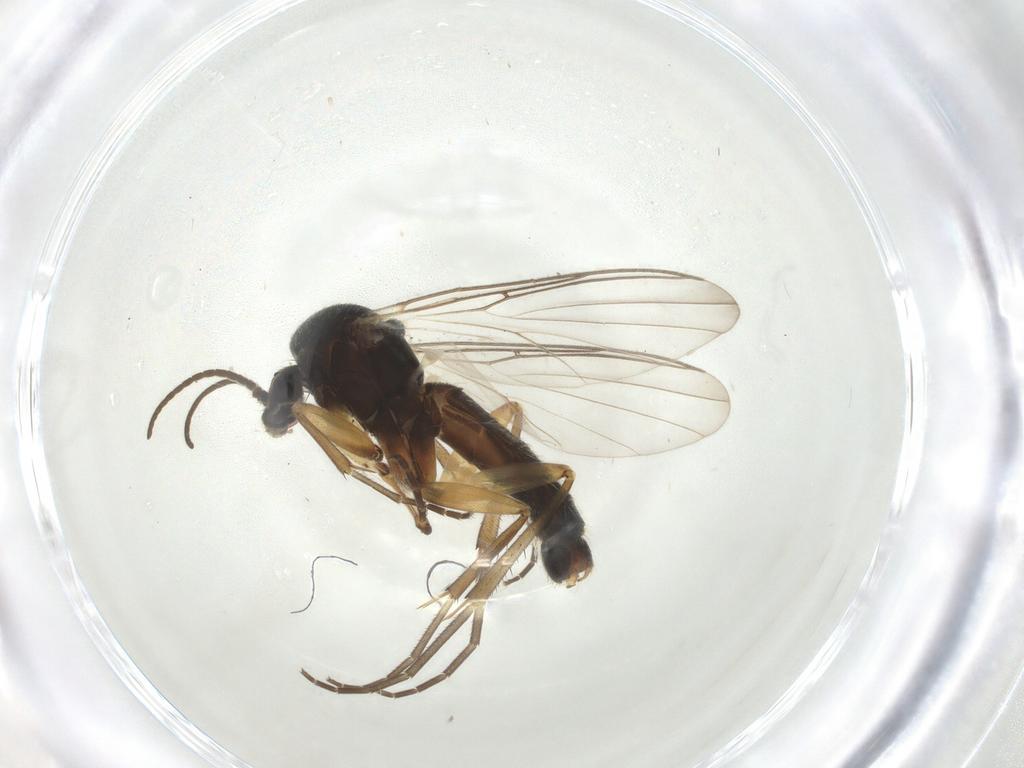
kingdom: Animalia
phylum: Arthropoda
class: Insecta
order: Diptera
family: Mycetophilidae
